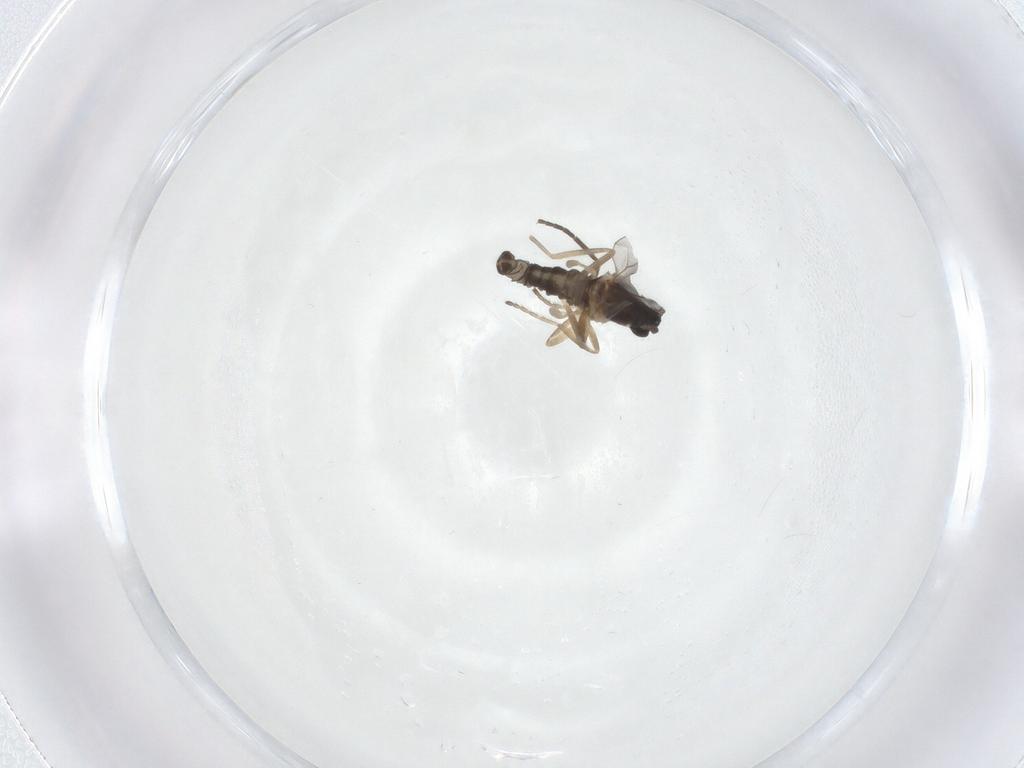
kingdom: Animalia
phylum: Arthropoda
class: Insecta
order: Diptera
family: Cecidomyiidae
